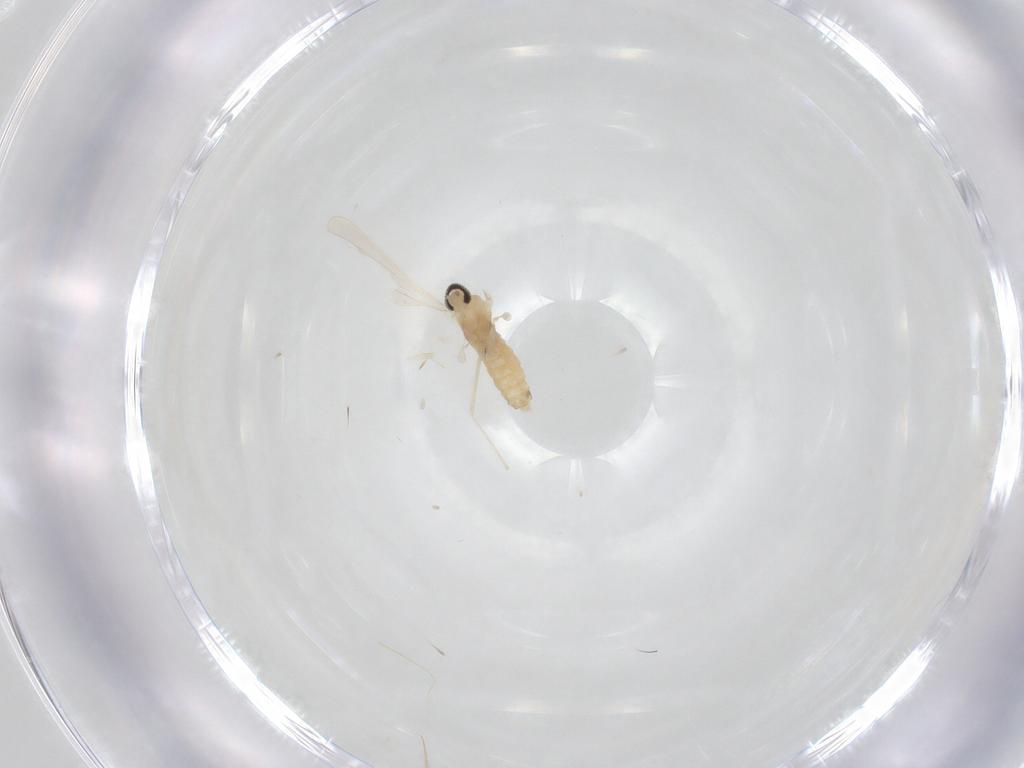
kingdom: Animalia
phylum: Arthropoda
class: Insecta
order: Diptera
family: Cecidomyiidae
